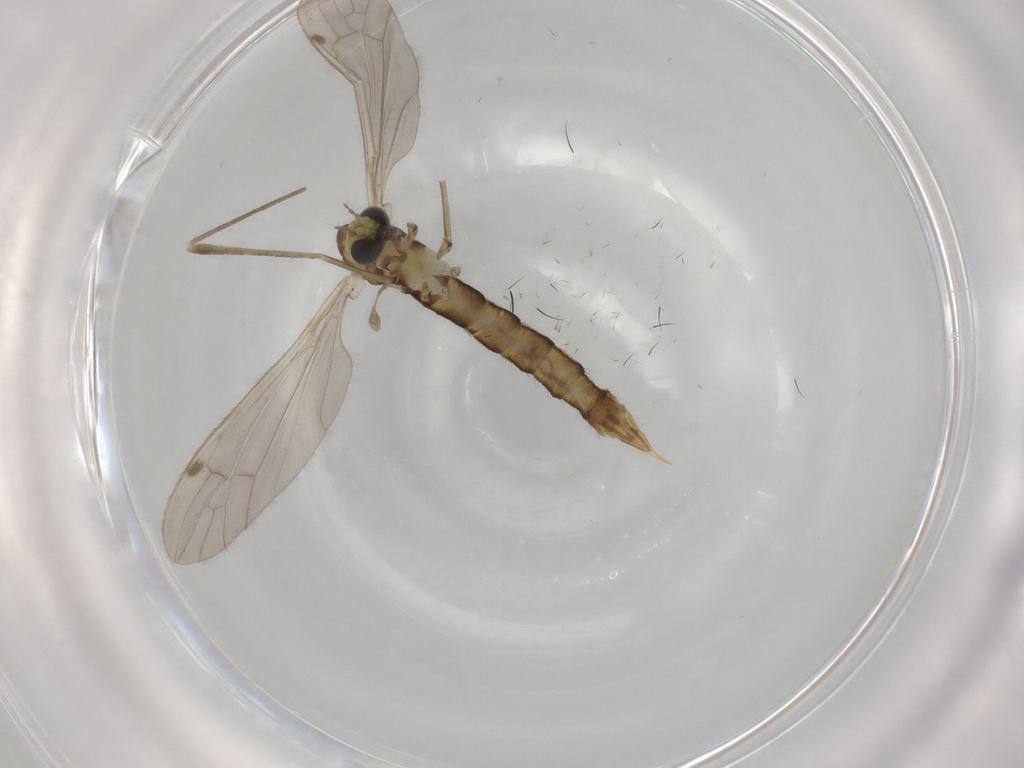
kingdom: Animalia
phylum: Arthropoda
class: Insecta
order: Diptera
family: Limoniidae
